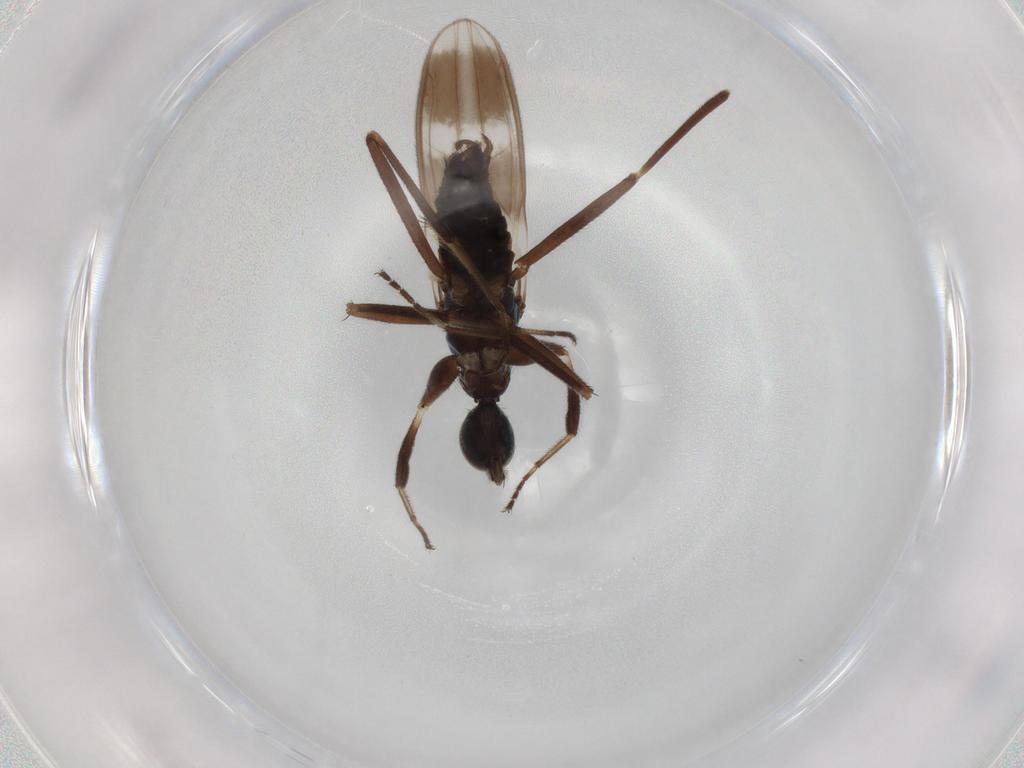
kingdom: Animalia
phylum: Arthropoda
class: Insecta
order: Diptera
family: Hybotidae
